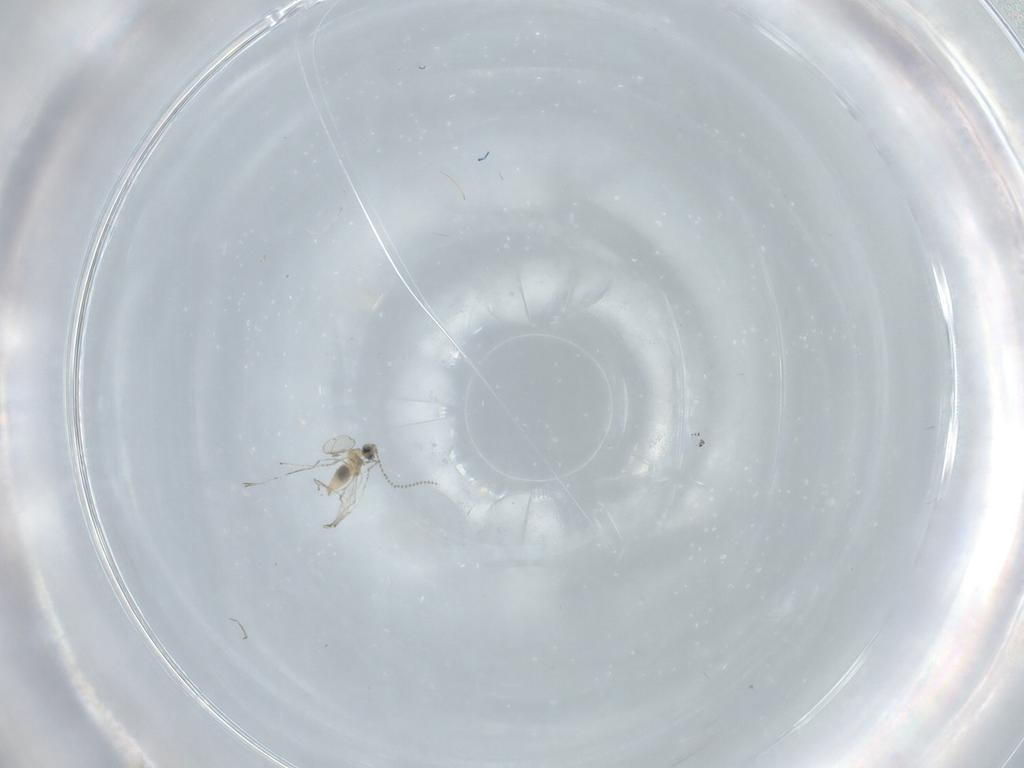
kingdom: Animalia
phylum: Arthropoda
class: Insecta
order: Diptera
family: Cecidomyiidae
